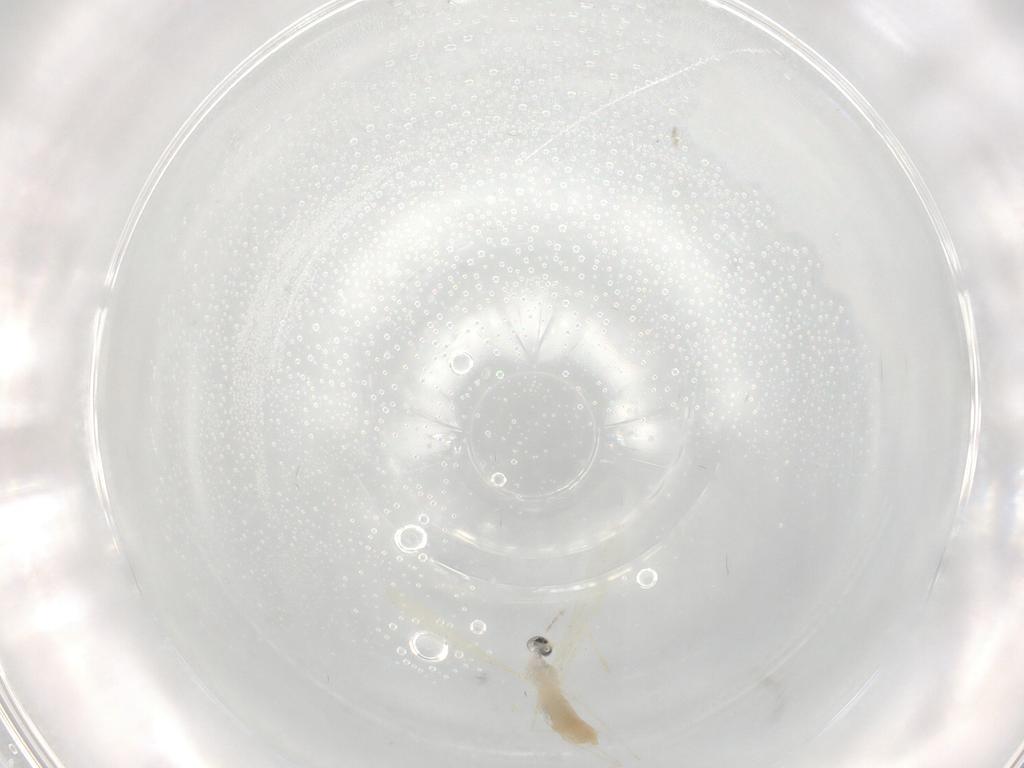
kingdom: Animalia
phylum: Arthropoda
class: Insecta
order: Diptera
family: Cecidomyiidae
